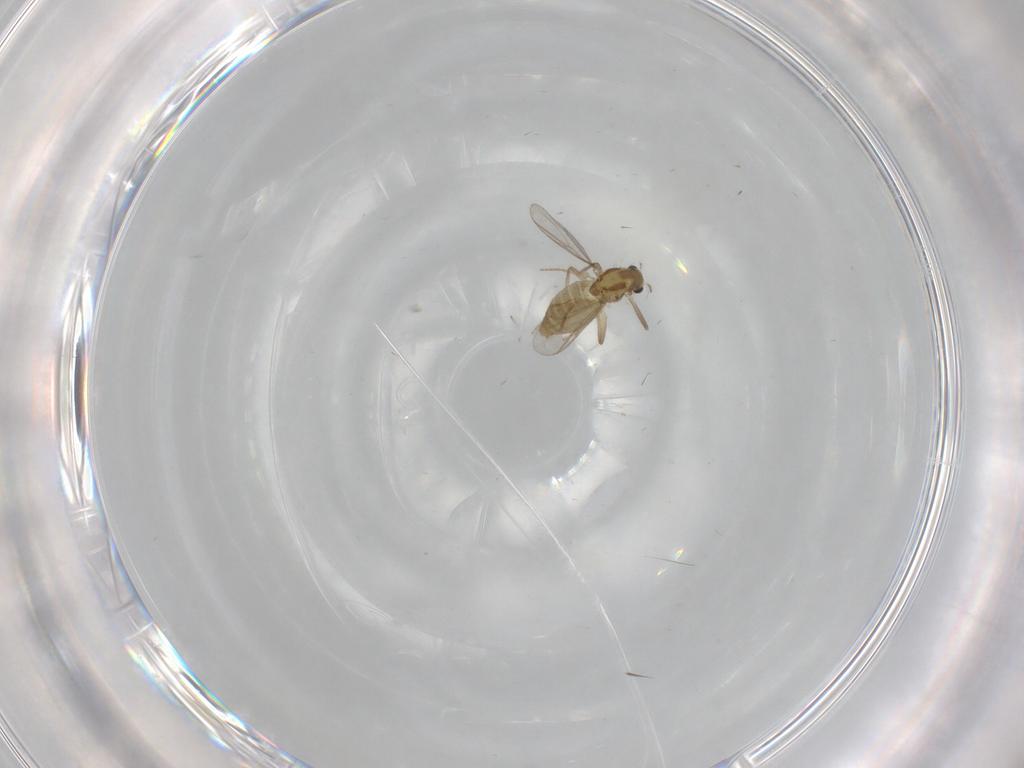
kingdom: Animalia
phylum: Arthropoda
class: Insecta
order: Diptera
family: Chironomidae
